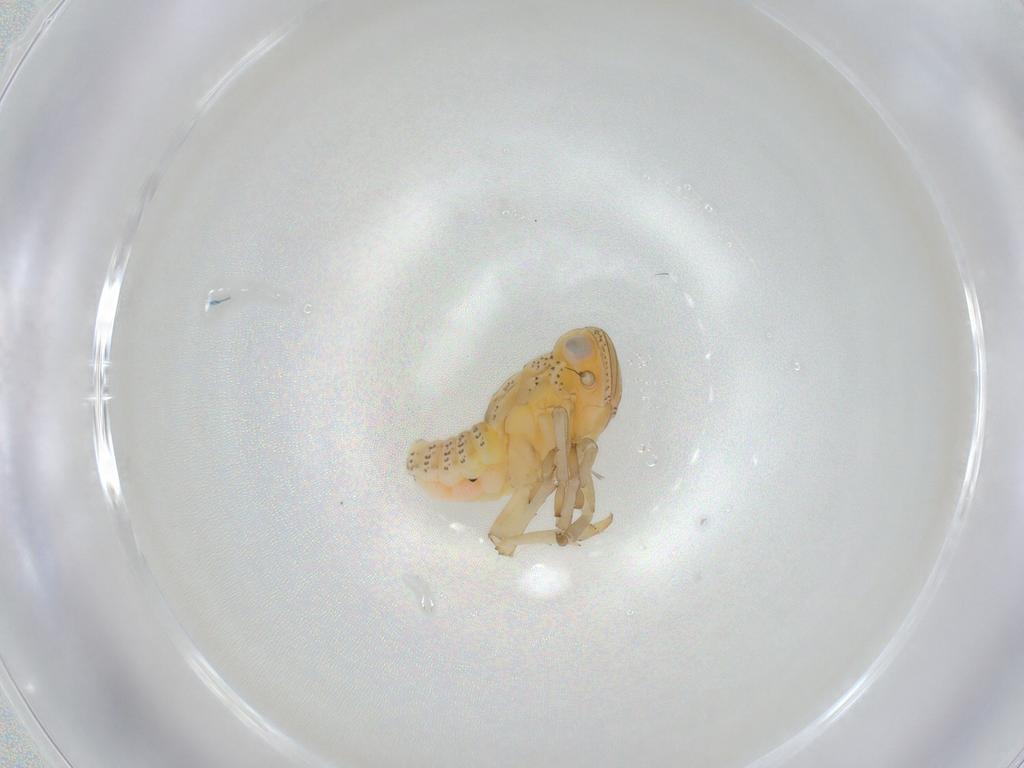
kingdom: Animalia
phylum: Arthropoda
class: Insecta
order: Hemiptera
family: Tropiduchidae
